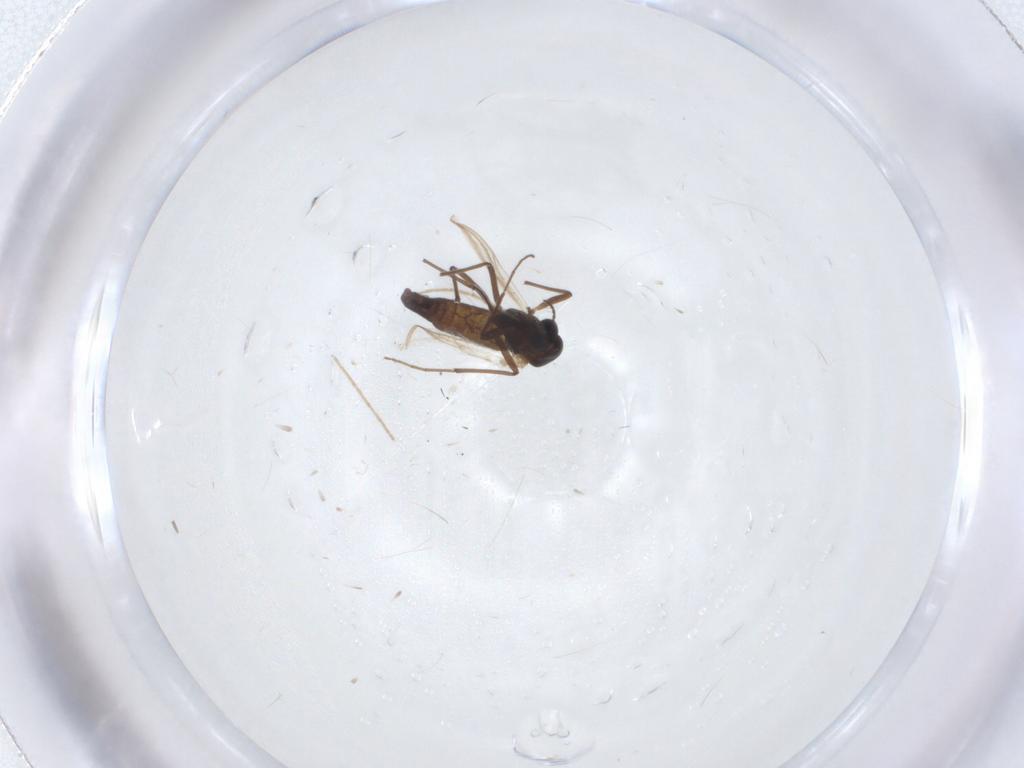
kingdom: Animalia
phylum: Arthropoda
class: Insecta
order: Diptera
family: Chironomidae
